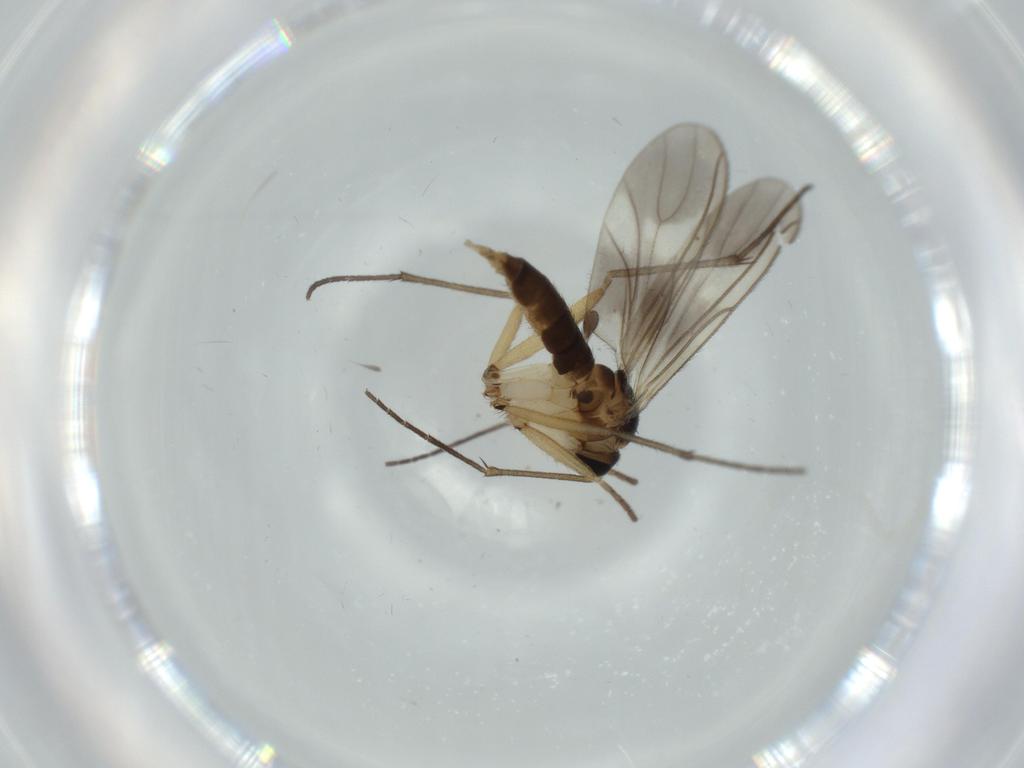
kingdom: Animalia
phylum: Arthropoda
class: Insecta
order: Diptera
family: Sciaridae
